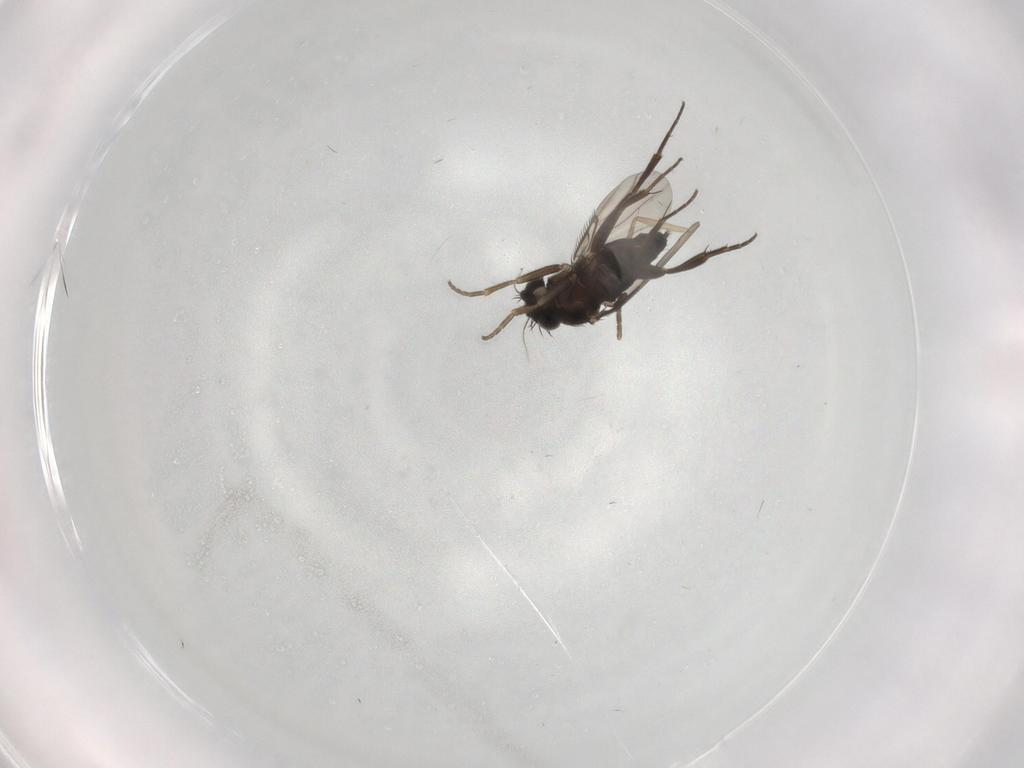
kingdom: Animalia
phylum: Arthropoda
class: Insecta
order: Diptera
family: Phoridae
